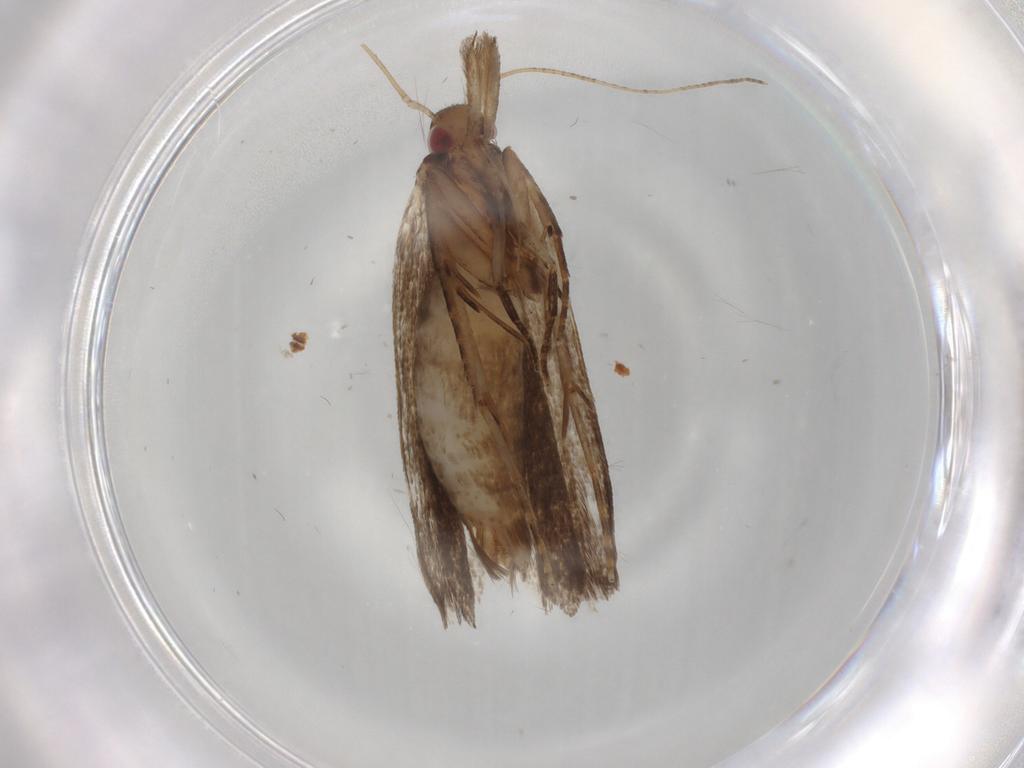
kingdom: Animalia
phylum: Arthropoda
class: Insecta
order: Lepidoptera
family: Gelechiidae
